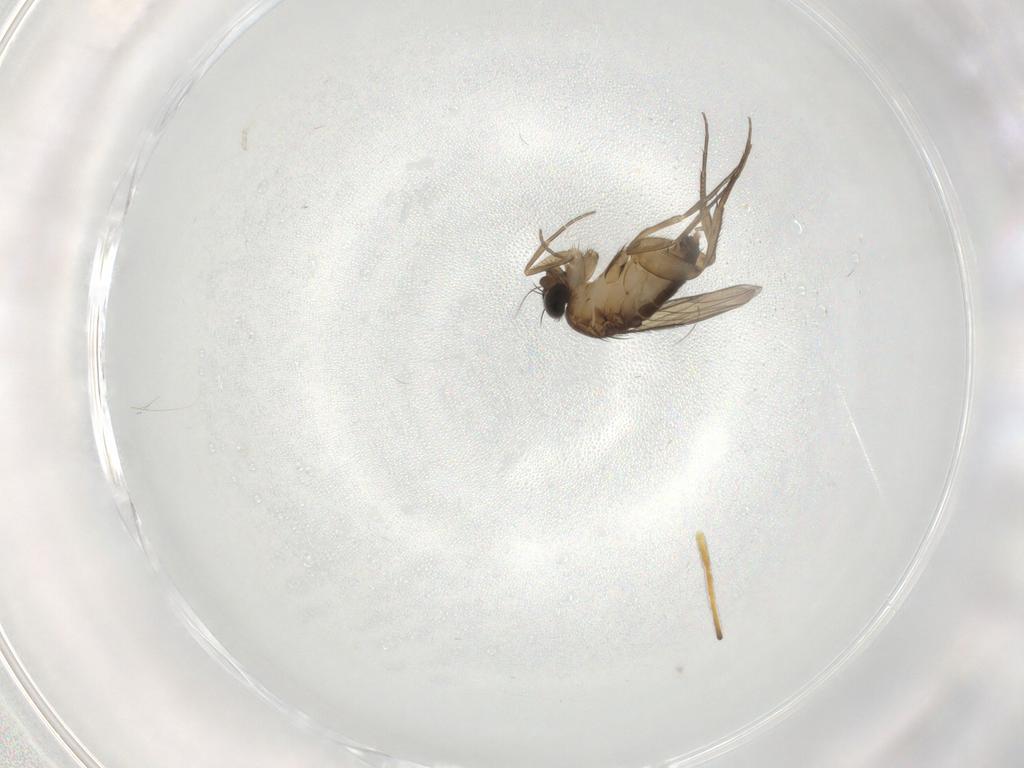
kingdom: Animalia
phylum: Arthropoda
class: Insecta
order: Diptera
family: Phoridae
